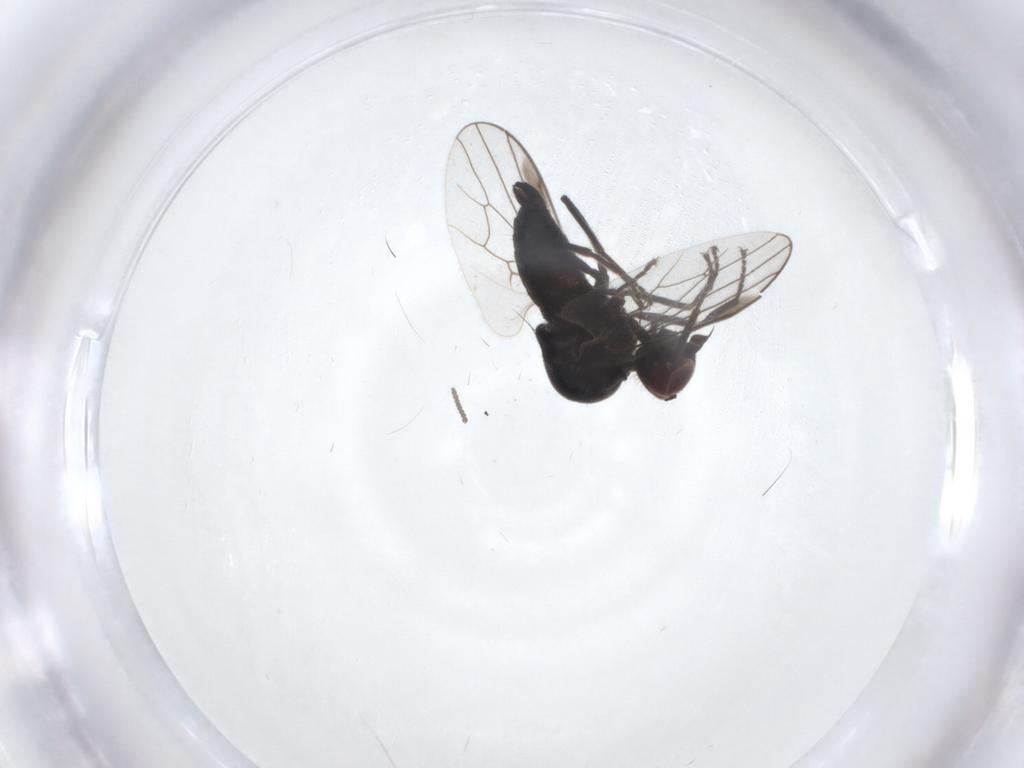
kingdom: Animalia
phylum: Arthropoda
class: Insecta
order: Diptera
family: Hybotidae
